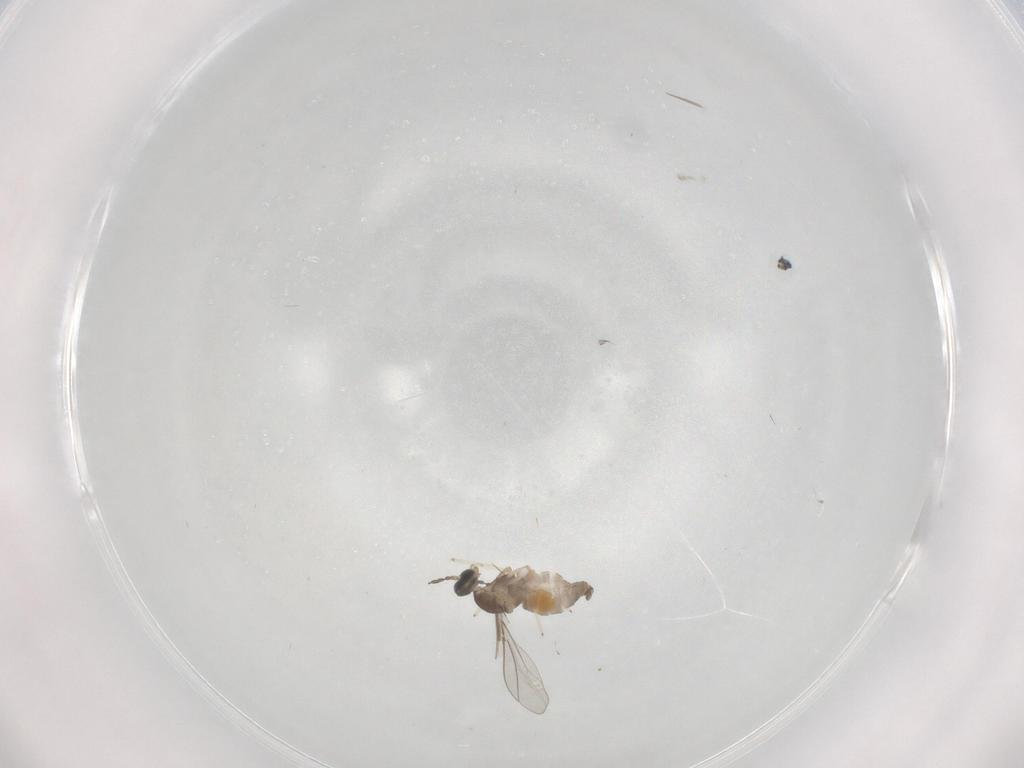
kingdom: Animalia
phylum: Arthropoda
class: Insecta
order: Diptera
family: Cecidomyiidae
